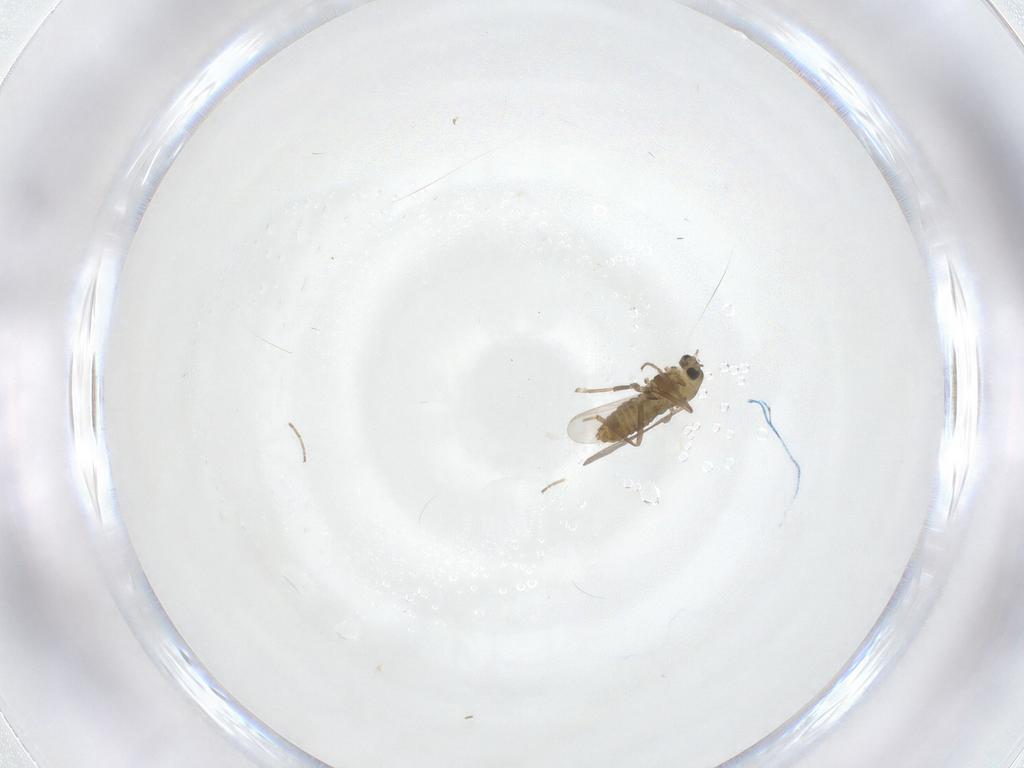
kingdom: Animalia
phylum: Arthropoda
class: Insecta
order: Diptera
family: Chironomidae
